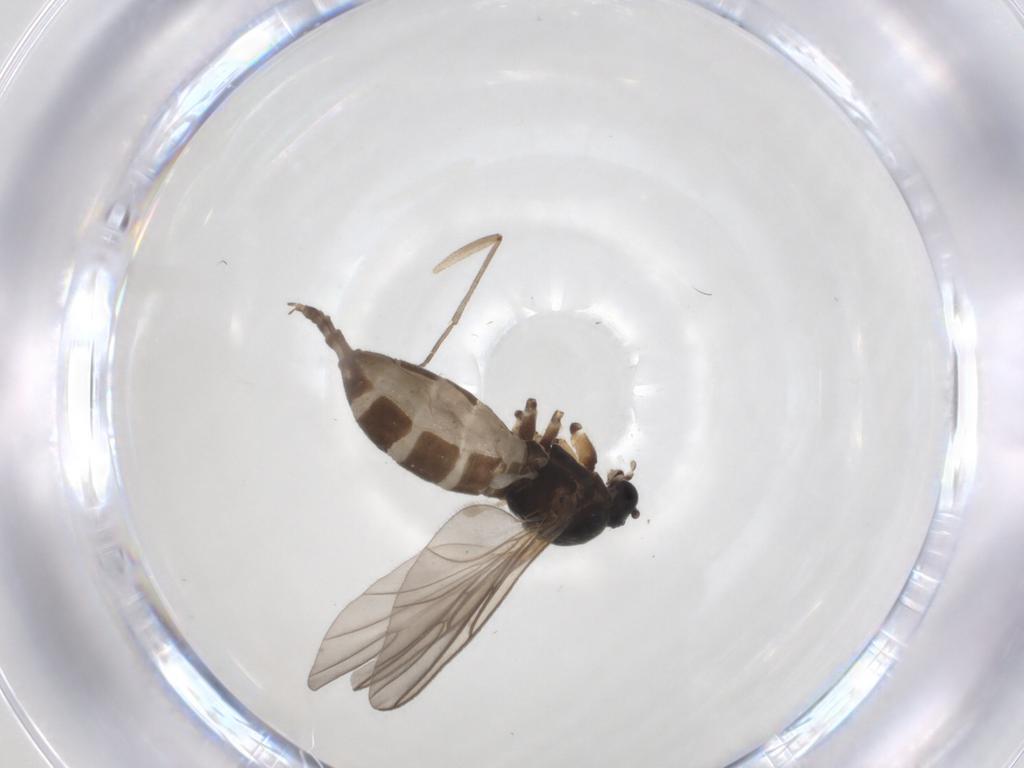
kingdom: Animalia
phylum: Arthropoda
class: Insecta
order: Diptera
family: Sciaridae
